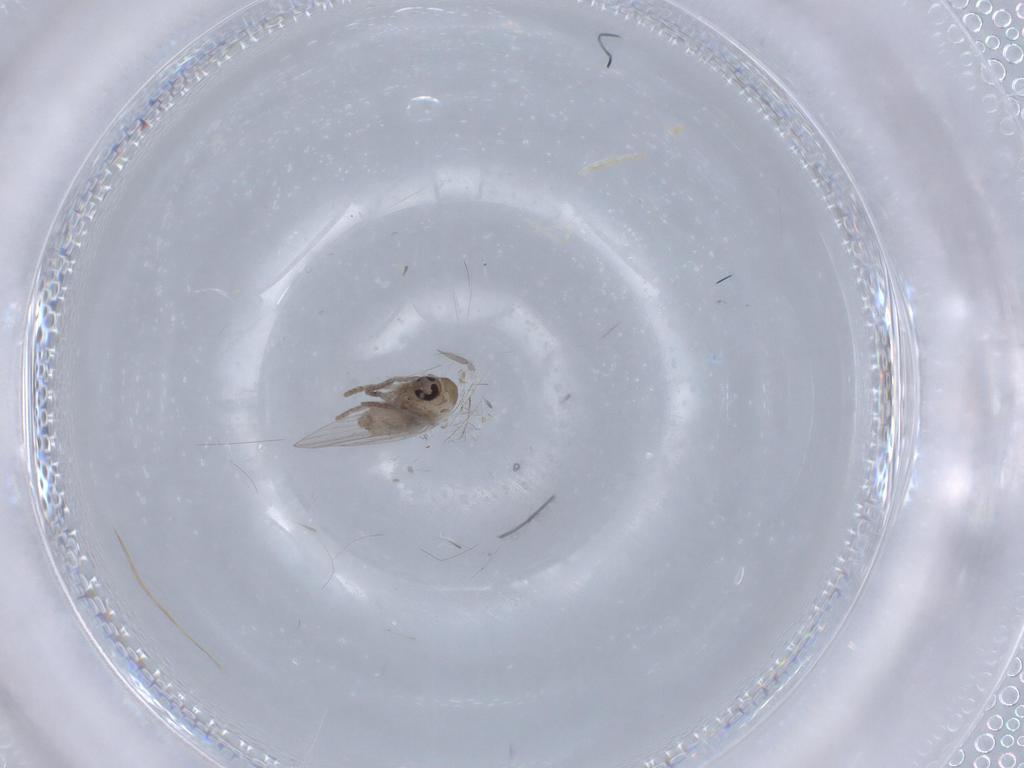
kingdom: Animalia
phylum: Arthropoda
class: Insecta
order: Diptera
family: Psychodidae
